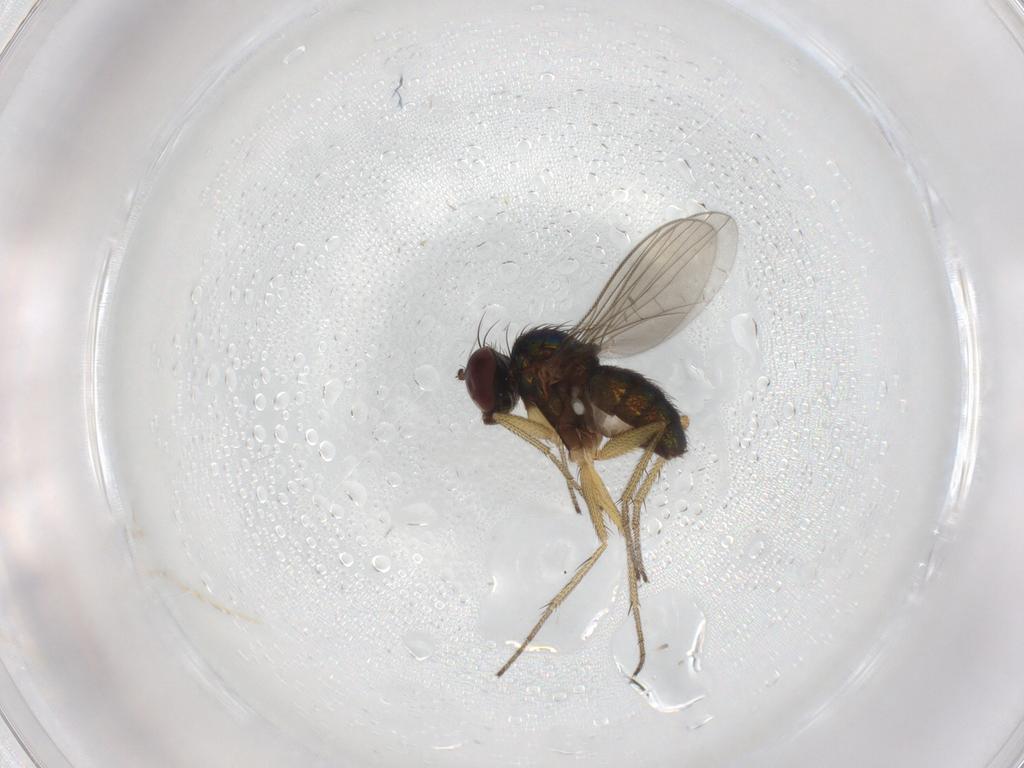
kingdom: Animalia
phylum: Arthropoda
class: Insecta
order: Diptera
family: Dolichopodidae
